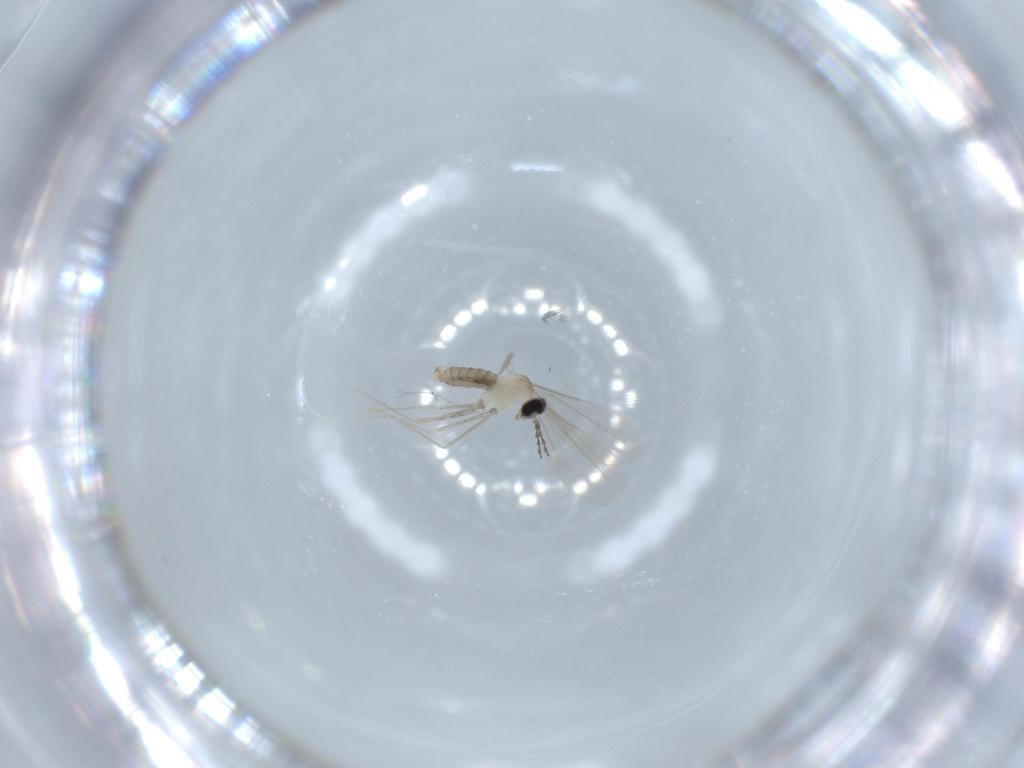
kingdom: Animalia
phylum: Arthropoda
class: Insecta
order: Diptera
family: Cecidomyiidae
